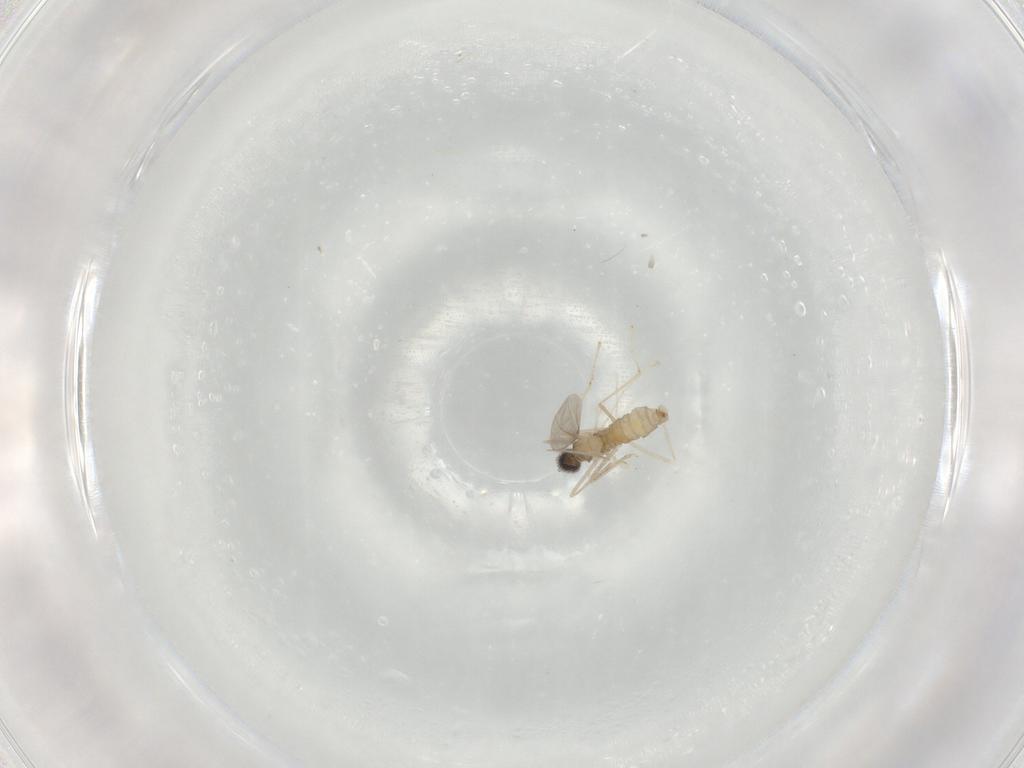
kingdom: Animalia
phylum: Arthropoda
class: Insecta
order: Diptera
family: Cecidomyiidae
